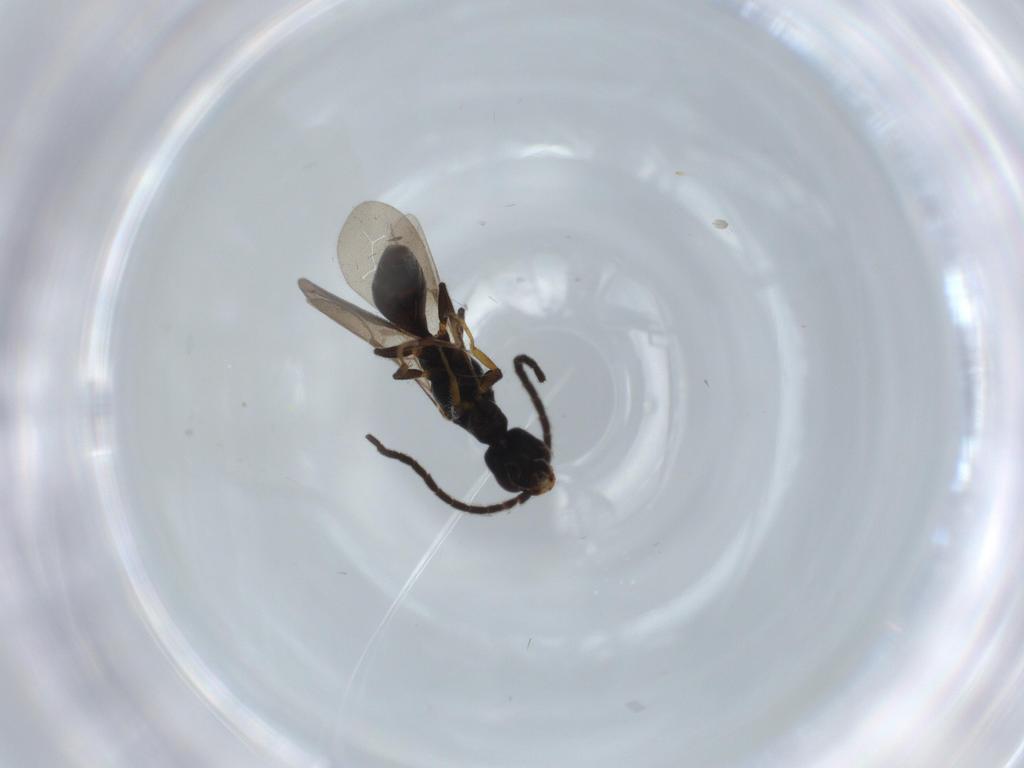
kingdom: Animalia
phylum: Arthropoda
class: Insecta
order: Hymenoptera
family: Bethylidae
